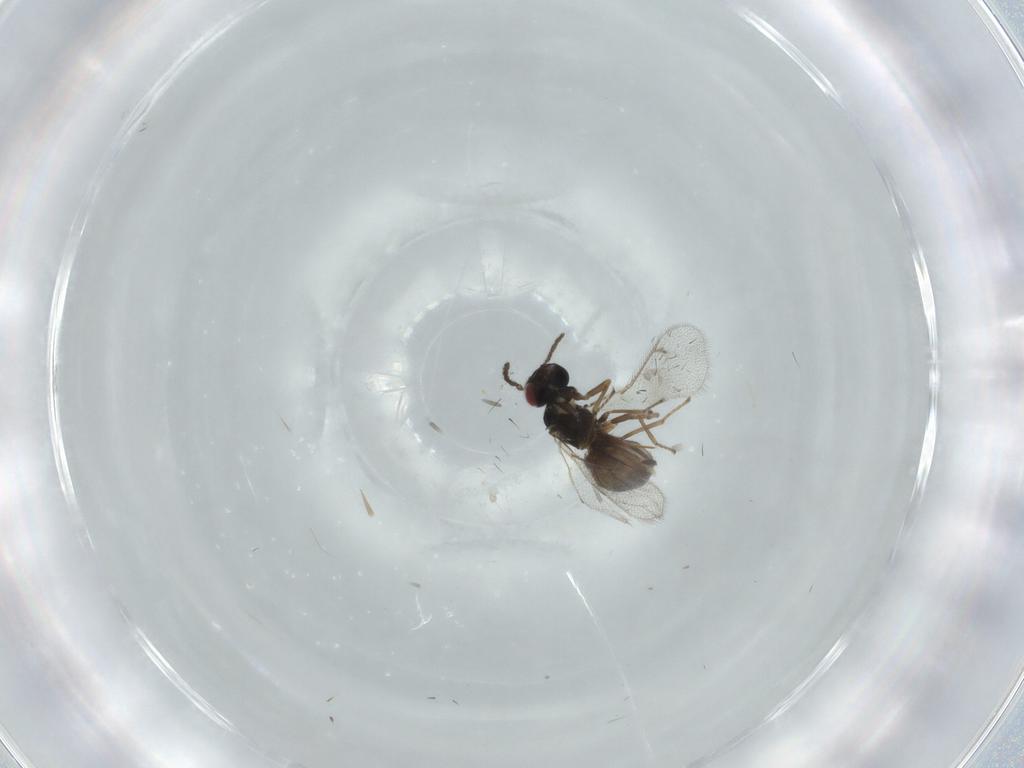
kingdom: Animalia
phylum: Arthropoda
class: Insecta
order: Hymenoptera
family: Eulophidae
